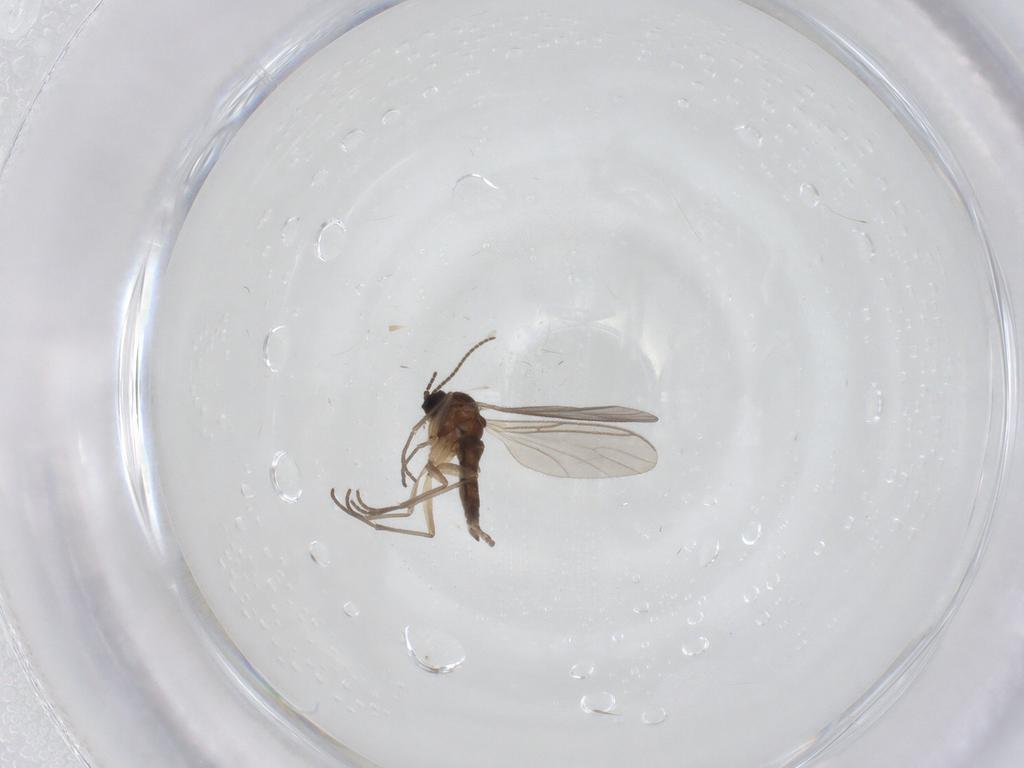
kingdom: Animalia
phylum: Arthropoda
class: Insecta
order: Diptera
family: Sciaridae
